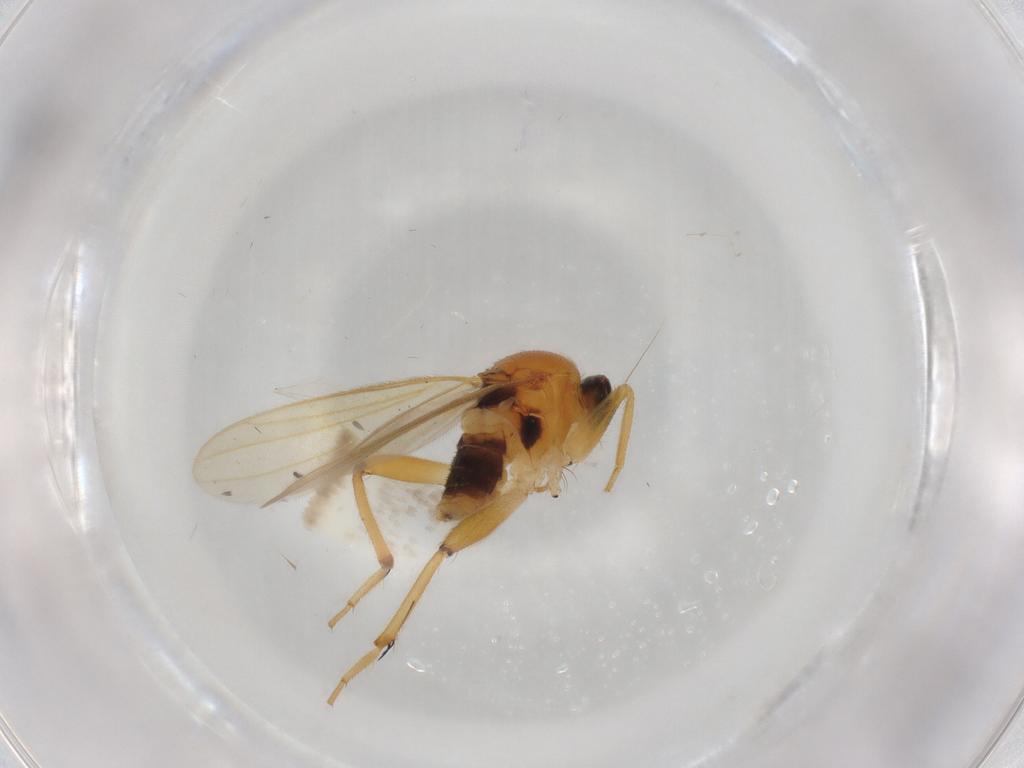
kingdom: Animalia
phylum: Arthropoda
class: Insecta
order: Diptera
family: Hybotidae
